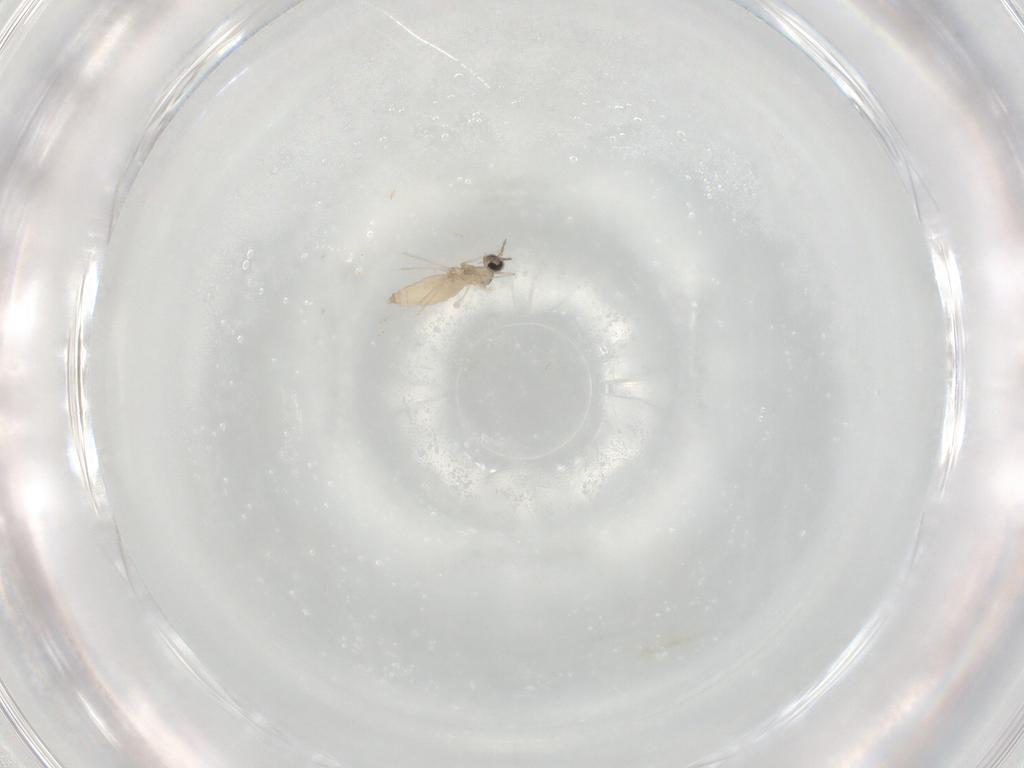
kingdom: Animalia
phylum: Arthropoda
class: Insecta
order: Diptera
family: Cecidomyiidae
